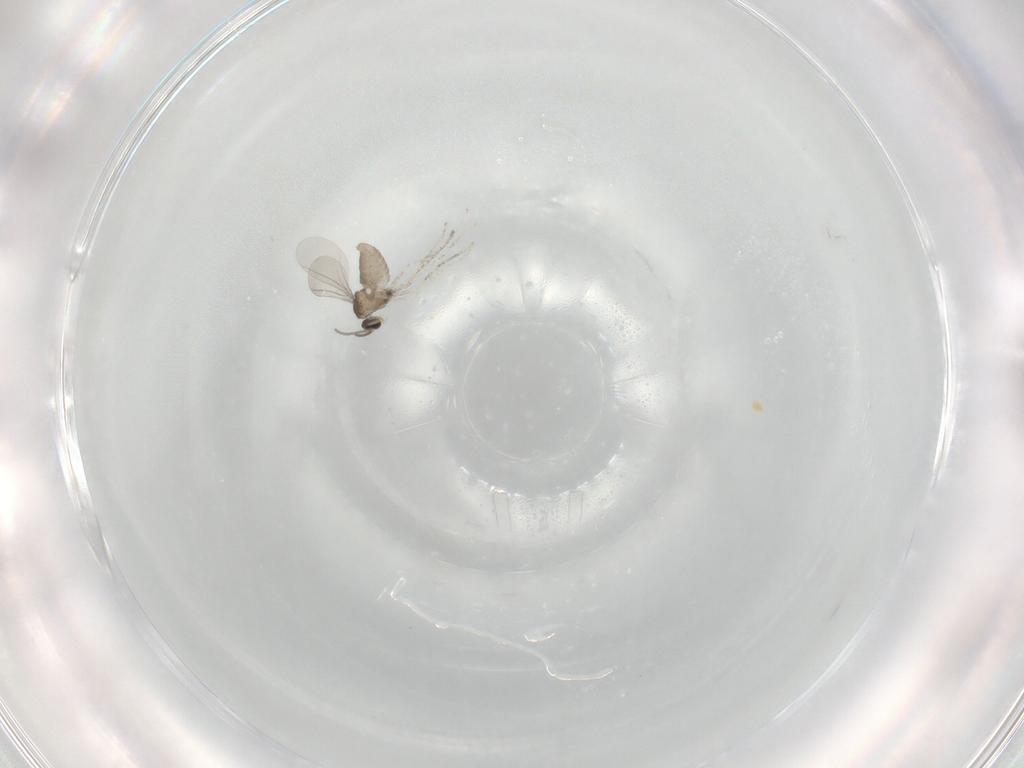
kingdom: Animalia
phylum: Arthropoda
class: Insecta
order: Diptera
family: Cecidomyiidae
